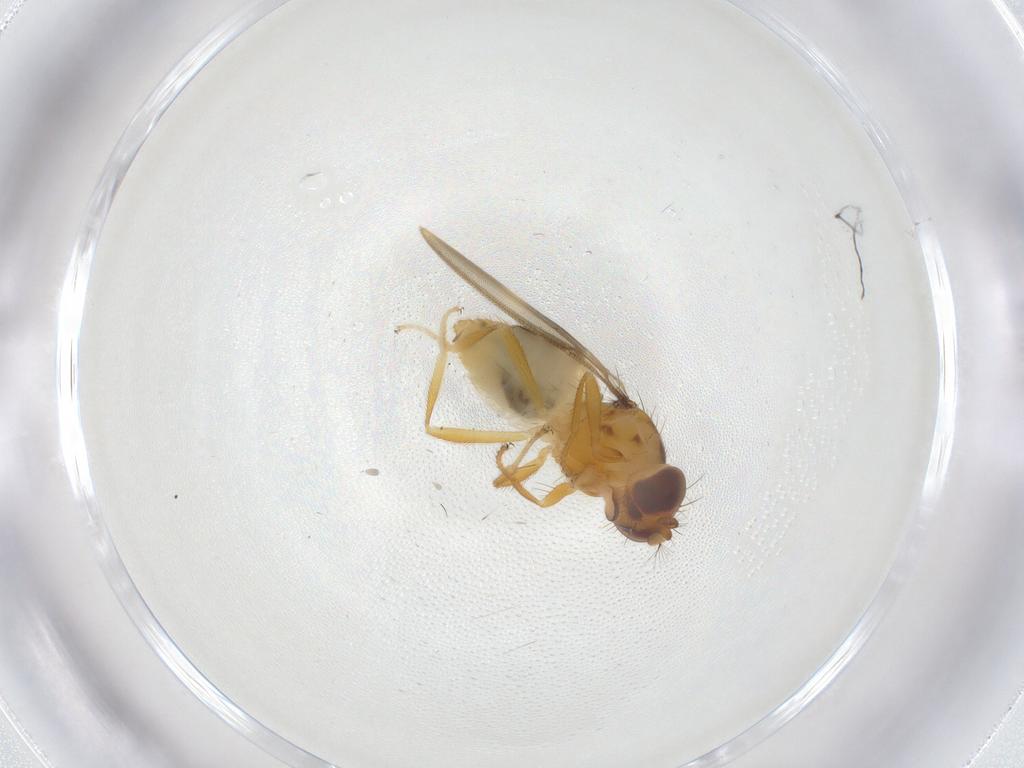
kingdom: Animalia
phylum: Arthropoda
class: Insecta
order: Diptera
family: Periscelididae
